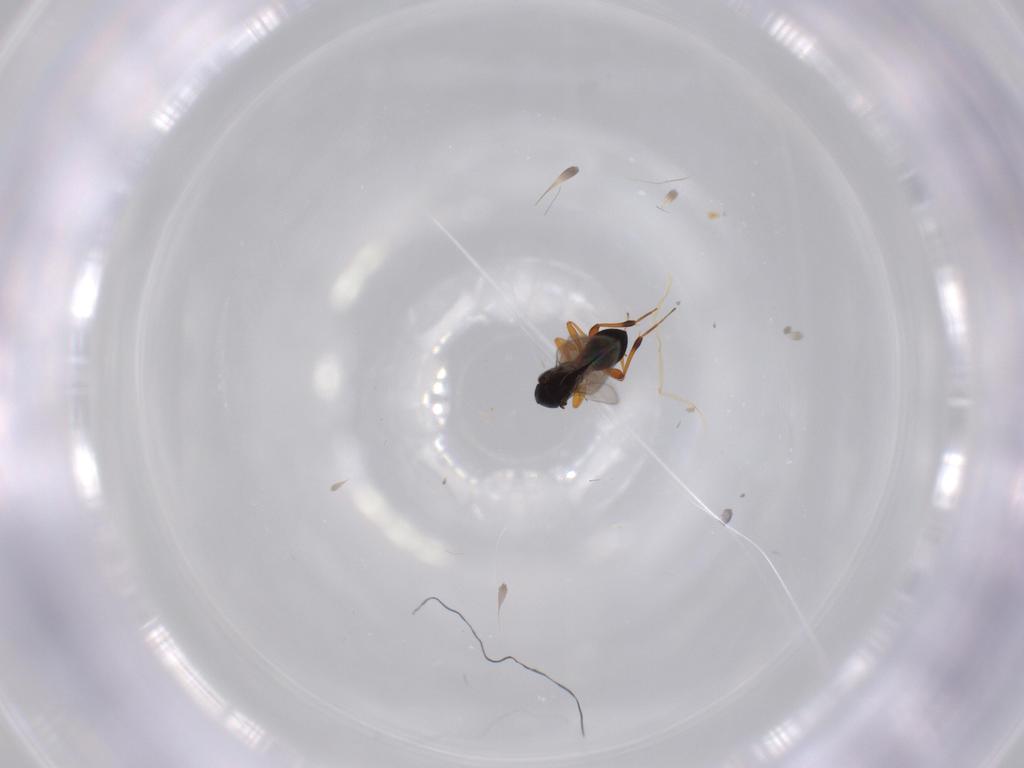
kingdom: Animalia
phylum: Arthropoda
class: Insecta
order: Hymenoptera
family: Platygastridae
